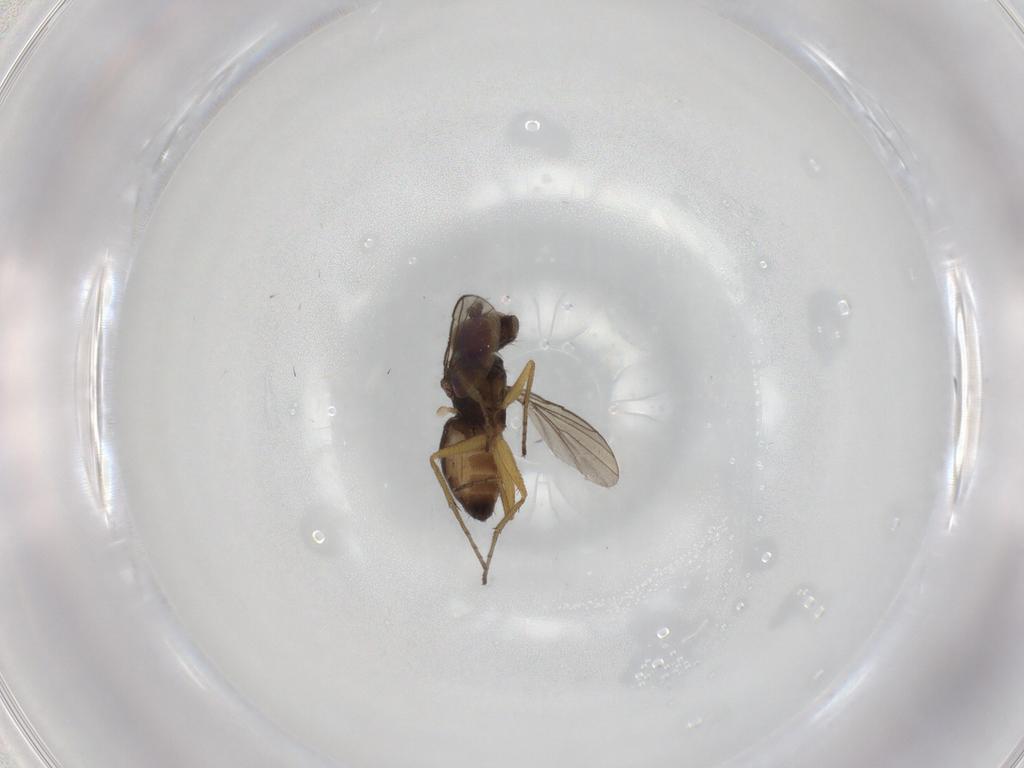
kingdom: Animalia
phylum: Arthropoda
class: Insecta
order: Diptera
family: Dolichopodidae
